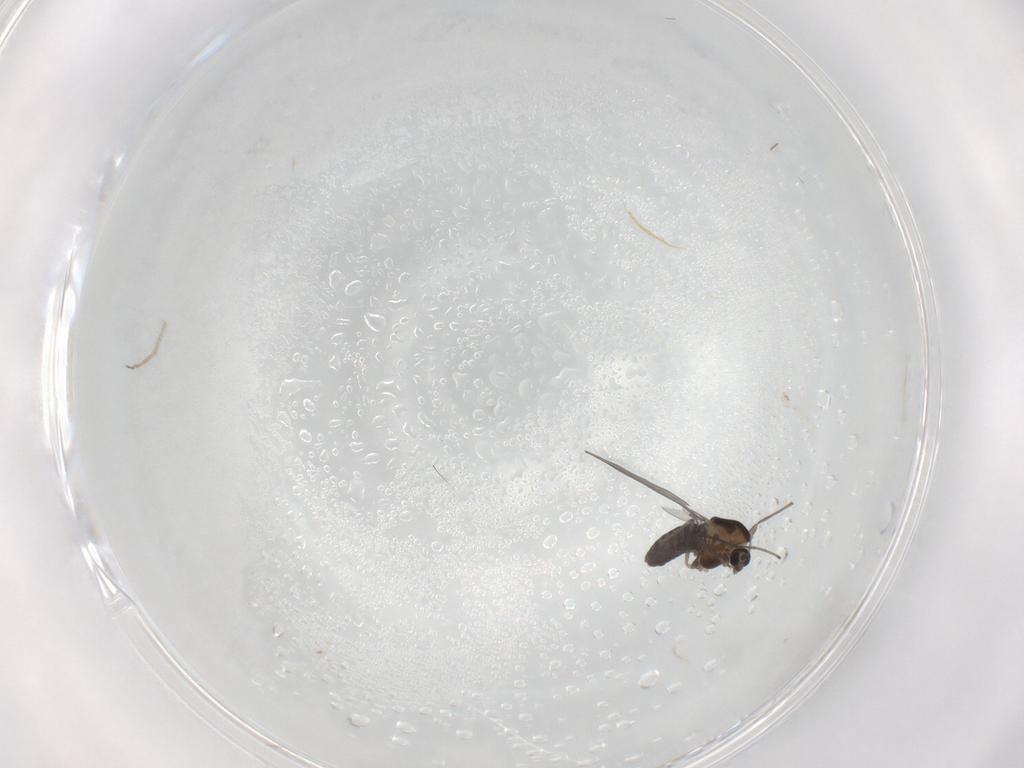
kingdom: Animalia
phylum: Arthropoda
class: Insecta
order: Diptera
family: Chironomidae
